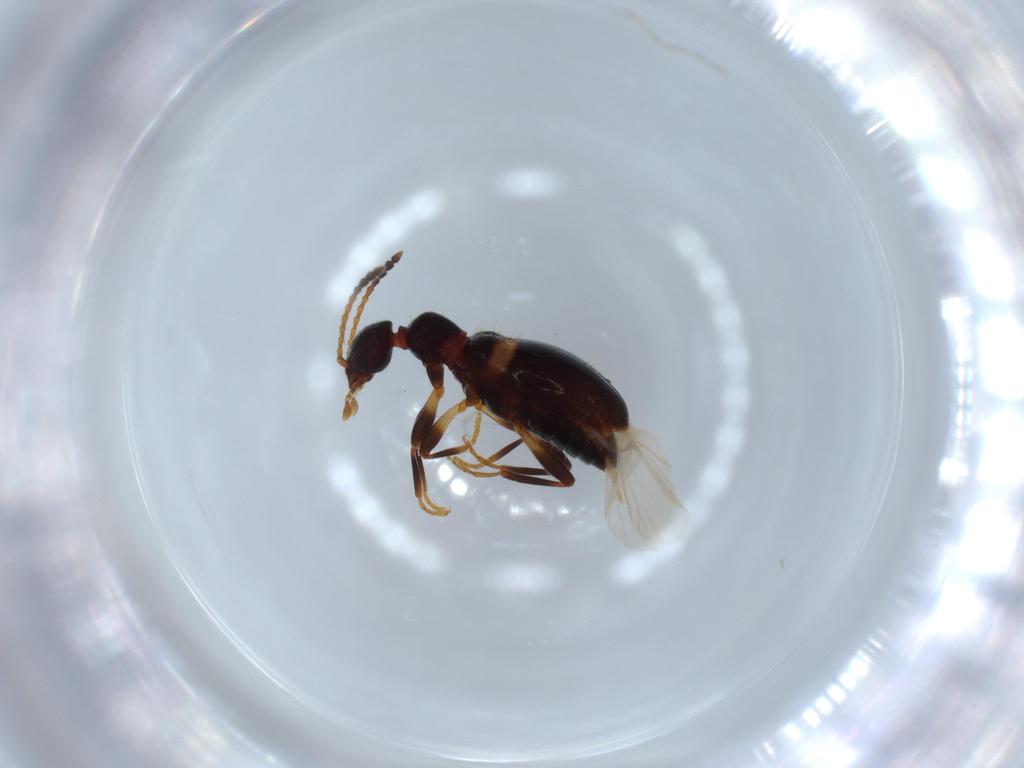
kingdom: Animalia
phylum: Arthropoda
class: Insecta
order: Coleoptera
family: Anthicidae
